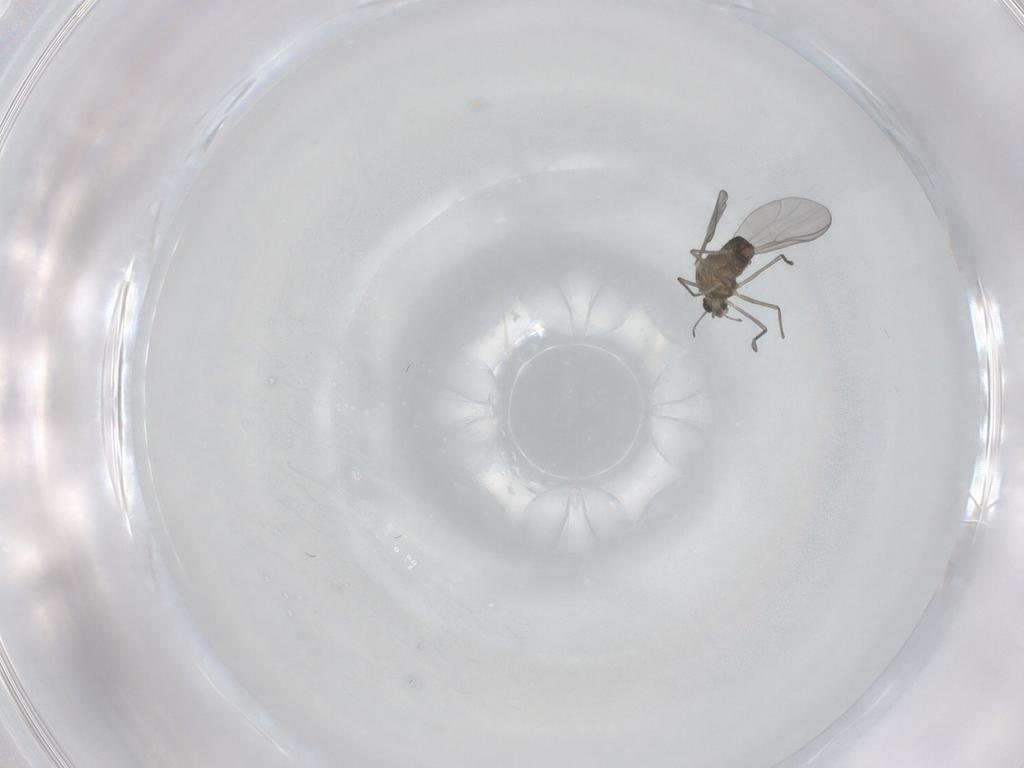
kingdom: Animalia
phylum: Arthropoda
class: Insecta
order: Diptera
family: Chironomidae
